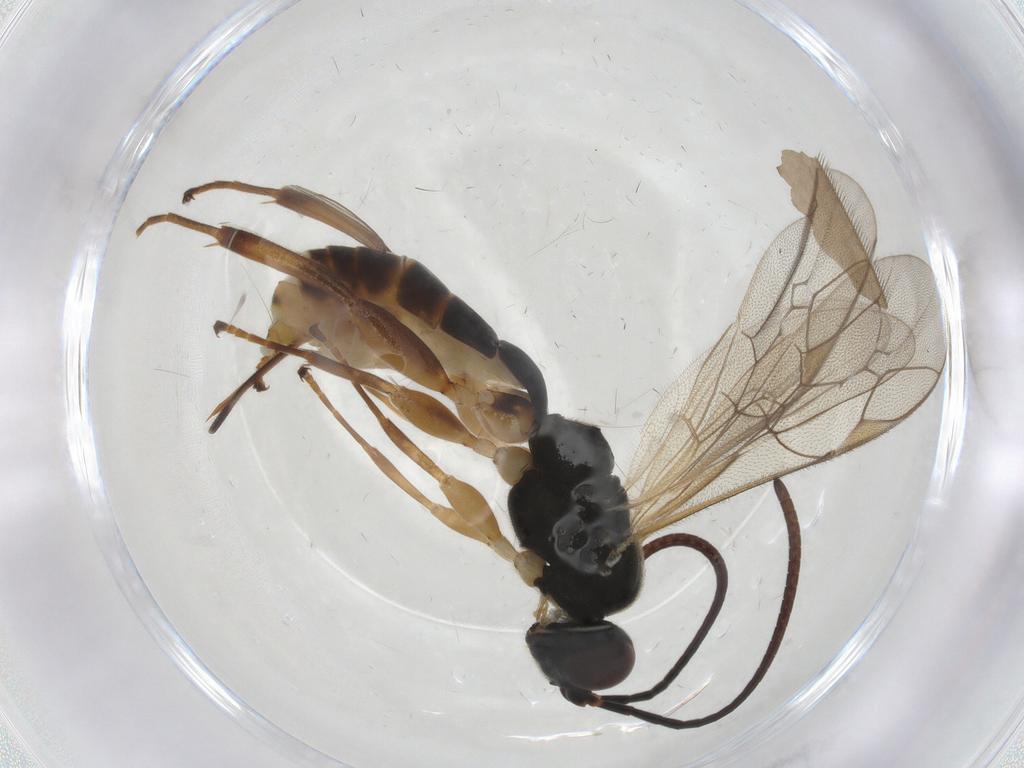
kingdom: Animalia
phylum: Arthropoda
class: Insecta
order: Hymenoptera
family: Ichneumonidae
